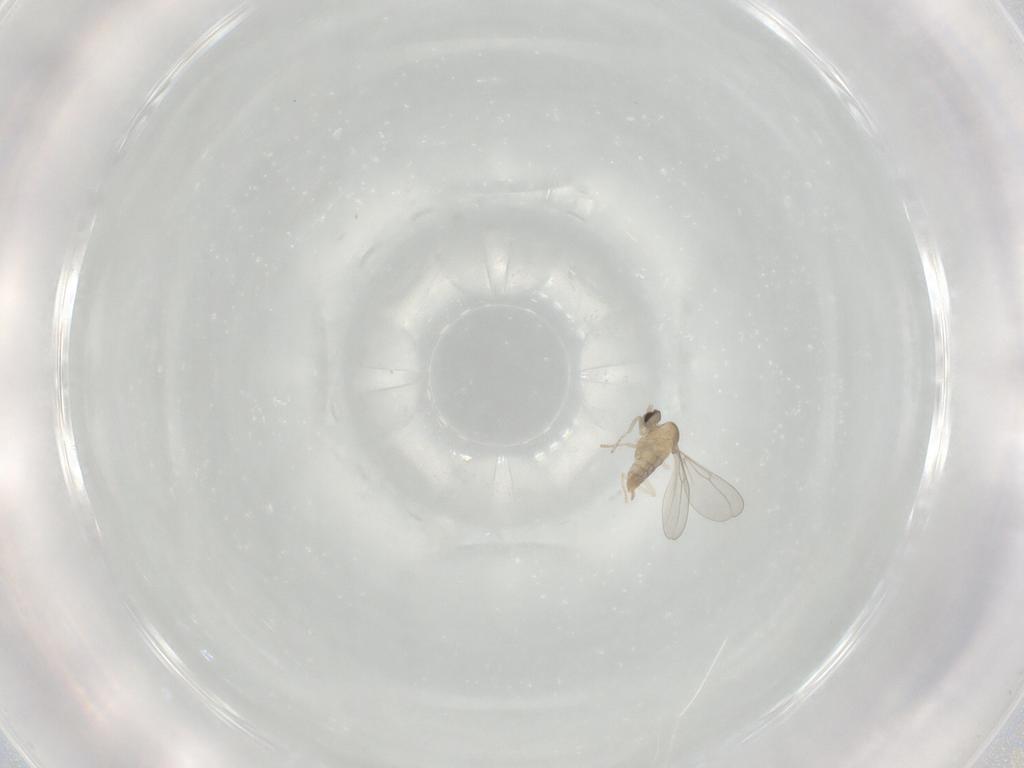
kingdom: Animalia
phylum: Arthropoda
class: Insecta
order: Diptera
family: Cecidomyiidae
